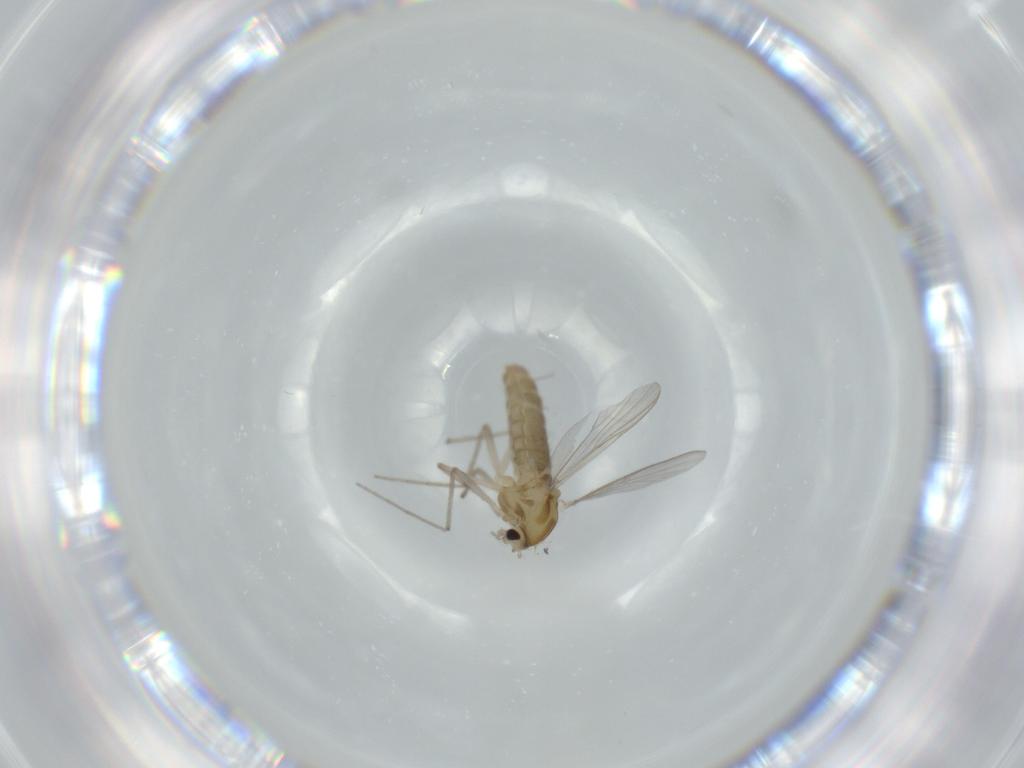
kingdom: Animalia
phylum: Arthropoda
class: Insecta
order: Diptera
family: Chironomidae
